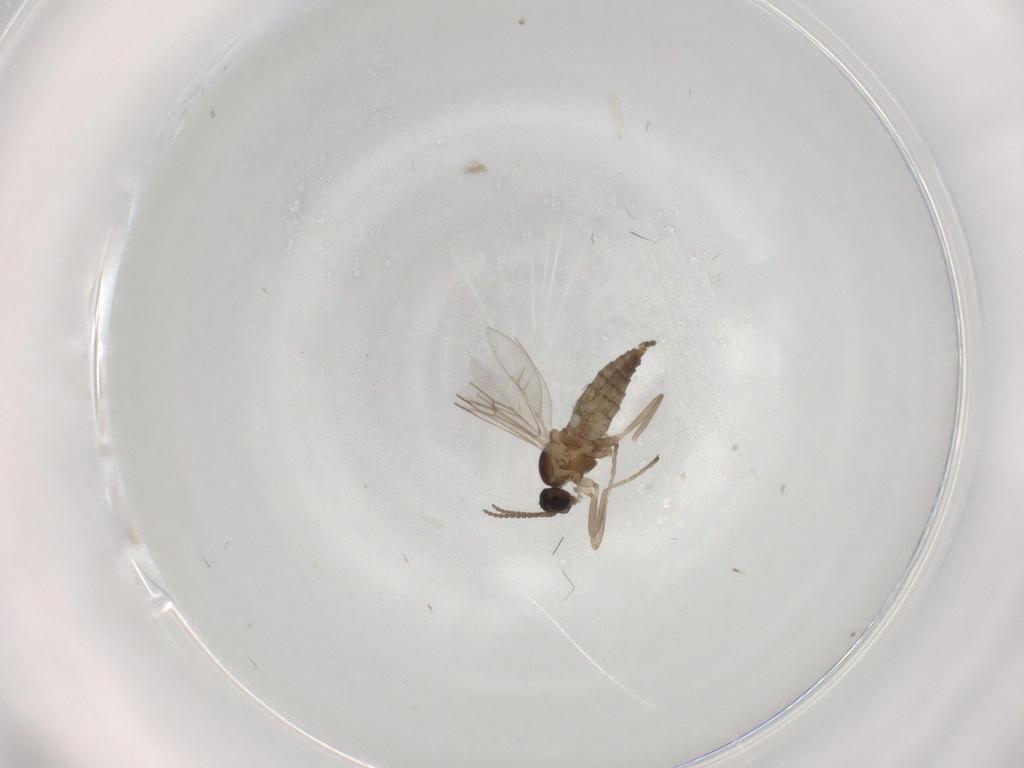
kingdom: Animalia
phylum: Arthropoda
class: Insecta
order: Diptera
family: Cecidomyiidae
